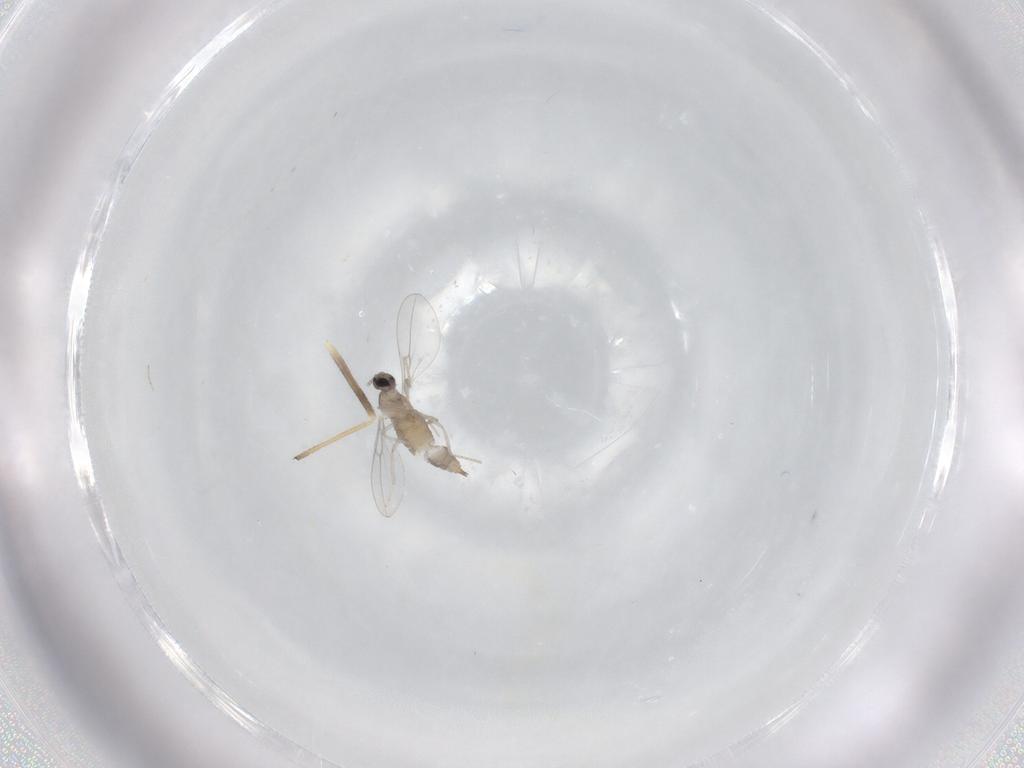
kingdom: Animalia
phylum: Arthropoda
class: Insecta
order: Diptera
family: Cecidomyiidae
